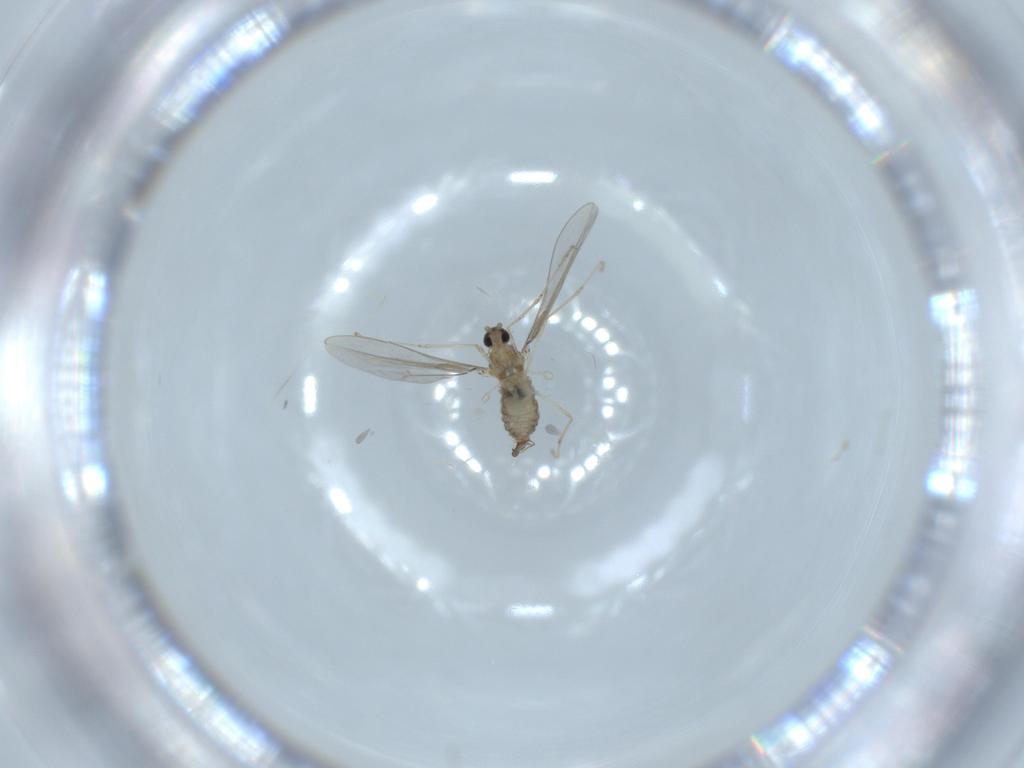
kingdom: Animalia
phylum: Arthropoda
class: Insecta
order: Diptera
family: Cecidomyiidae
